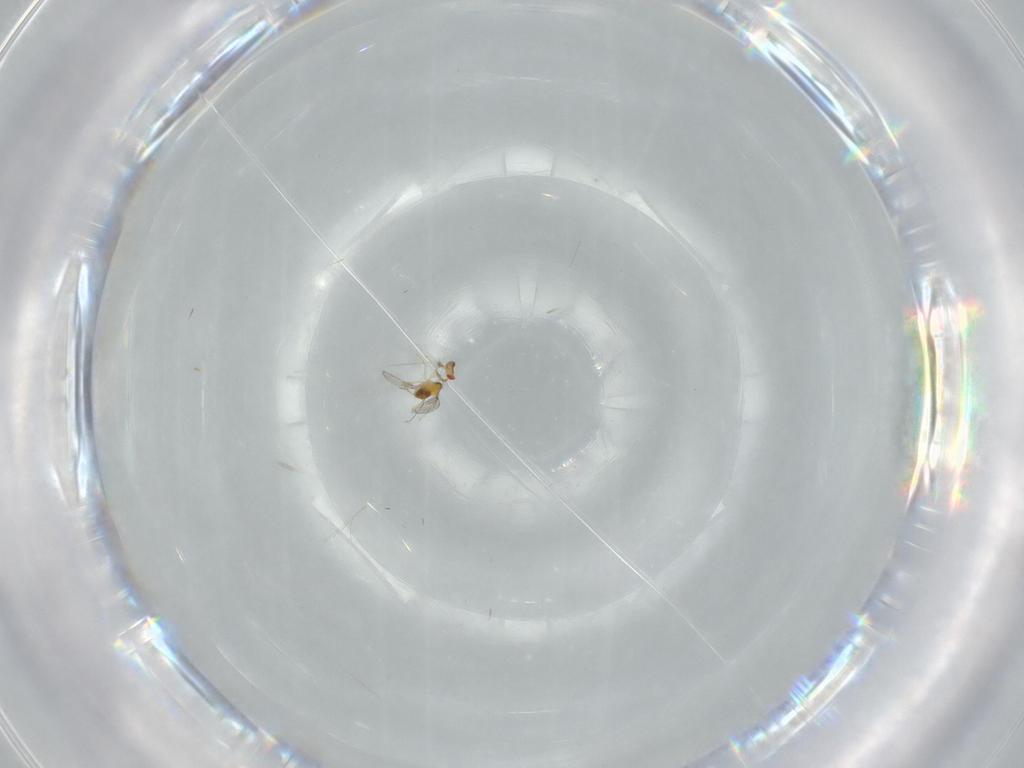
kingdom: Animalia
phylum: Arthropoda
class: Insecta
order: Hymenoptera
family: Trichogrammatidae
